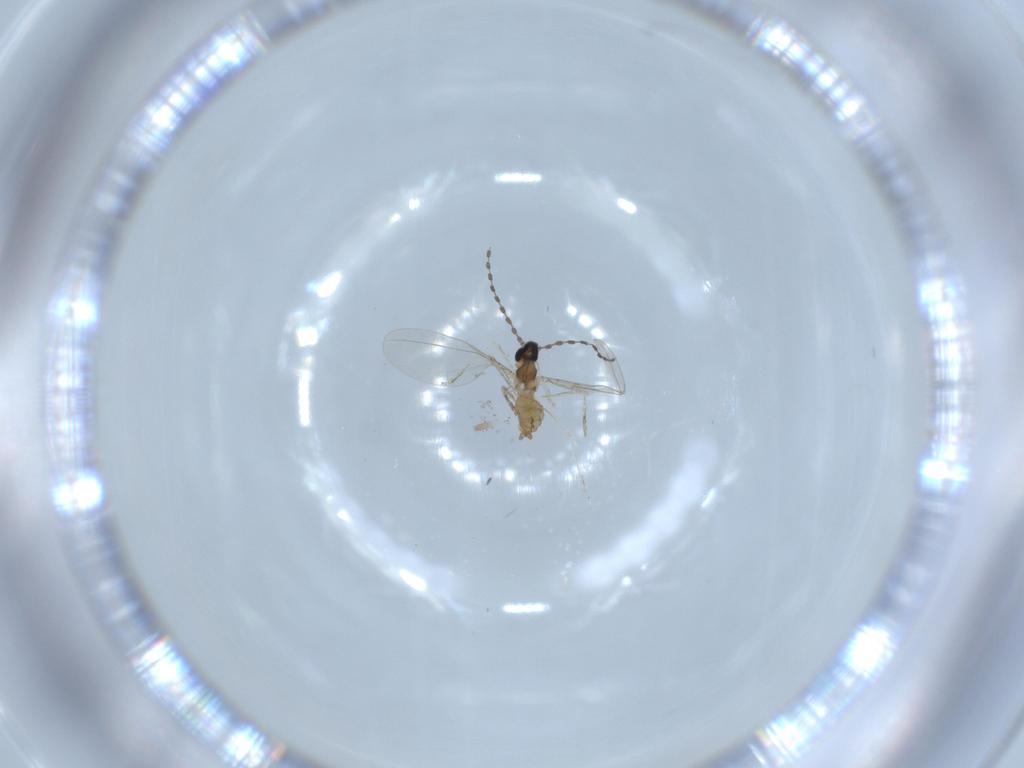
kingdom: Animalia
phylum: Arthropoda
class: Insecta
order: Diptera
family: Cecidomyiidae
